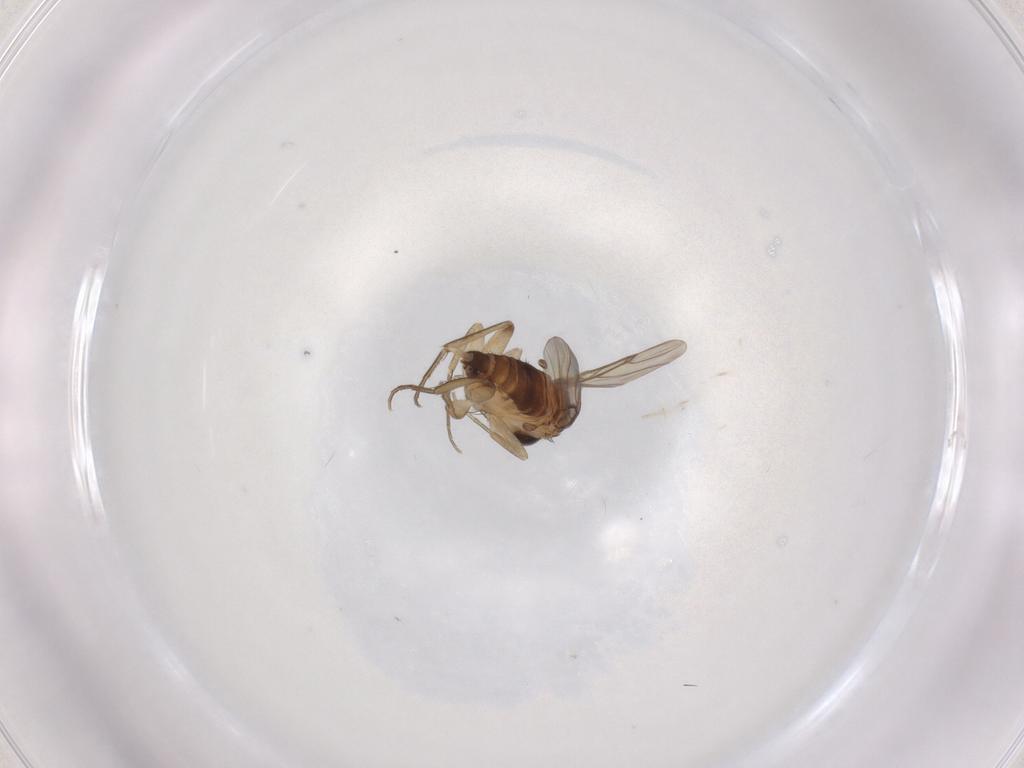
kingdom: Animalia
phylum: Arthropoda
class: Insecta
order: Diptera
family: Phoridae
